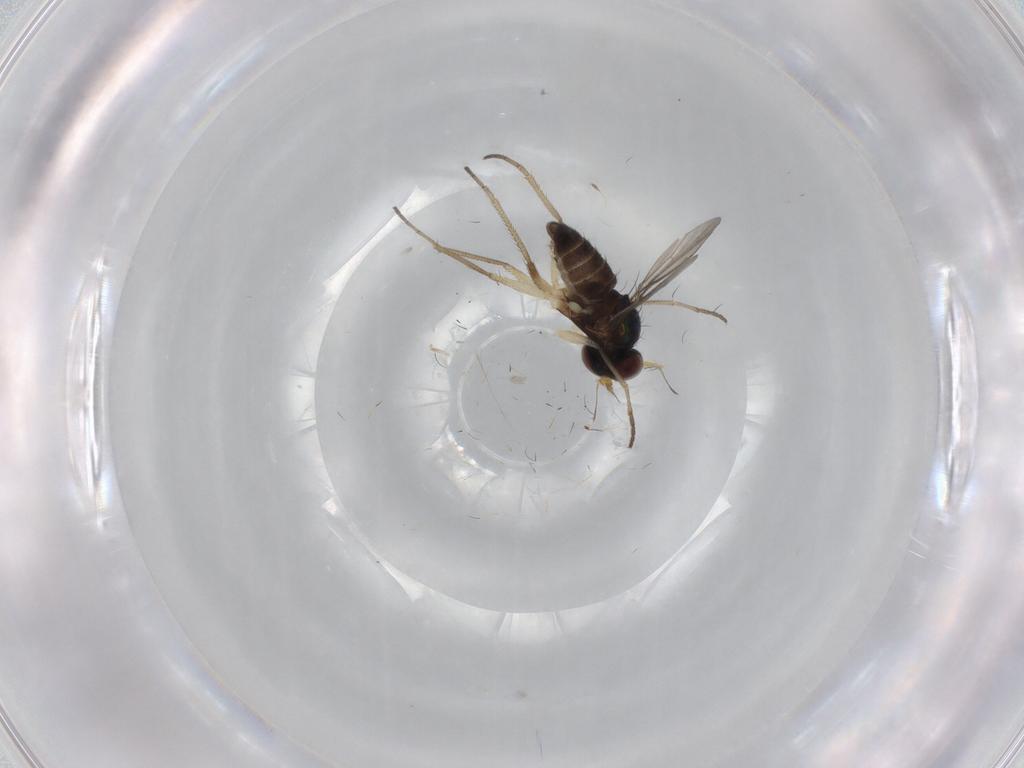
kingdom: Animalia
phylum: Arthropoda
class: Insecta
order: Diptera
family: Dolichopodidae
